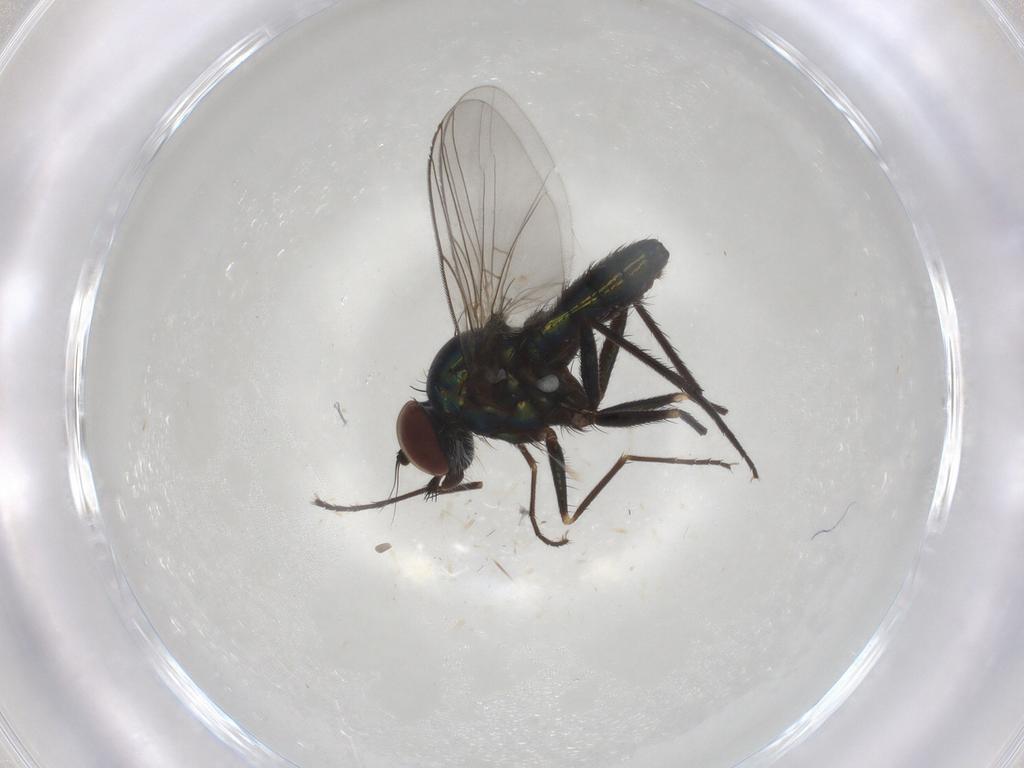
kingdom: Animalia
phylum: Arthropoda
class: Insecta
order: Diptera
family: Dolichopodidae
